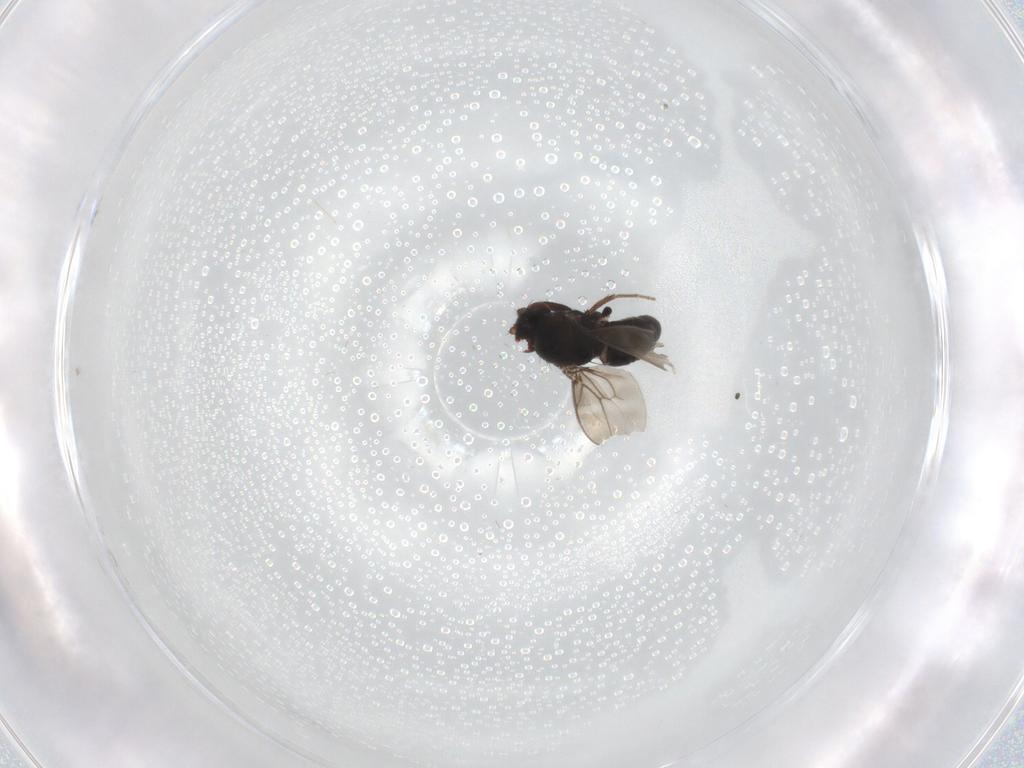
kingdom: Animalia
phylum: Arthropoda
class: Insecta
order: Diptera
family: Sphaeroceridae
